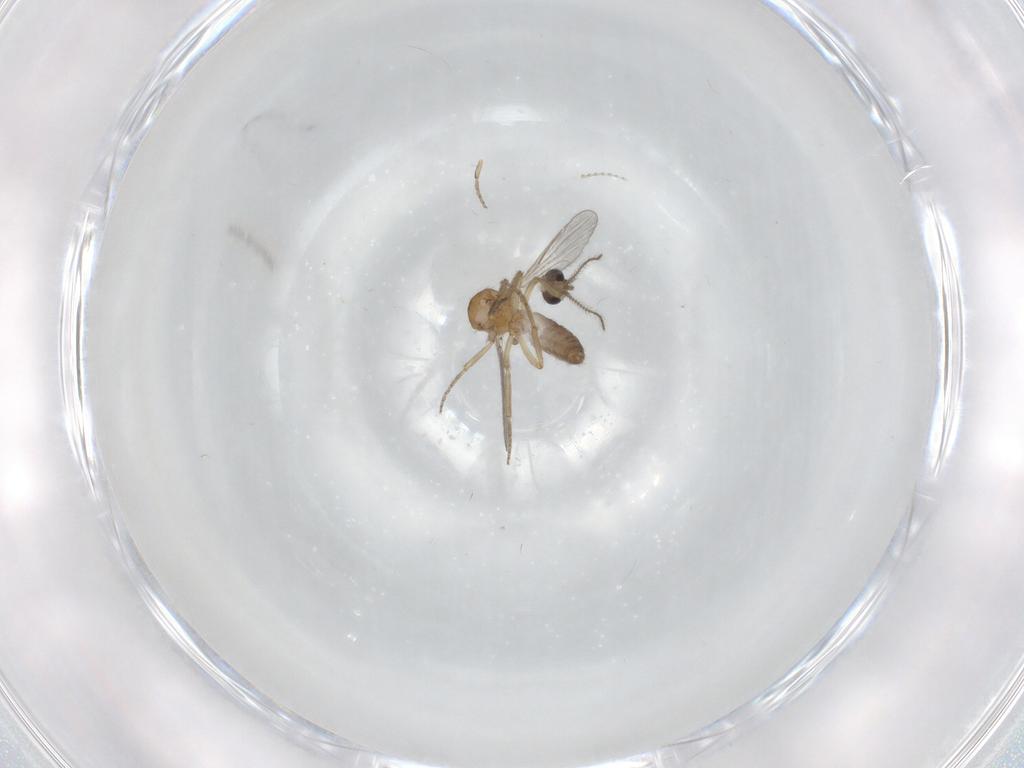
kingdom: Animalia
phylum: Arthropoda
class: Insecta
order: Diptera
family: Ceratopogonidae
